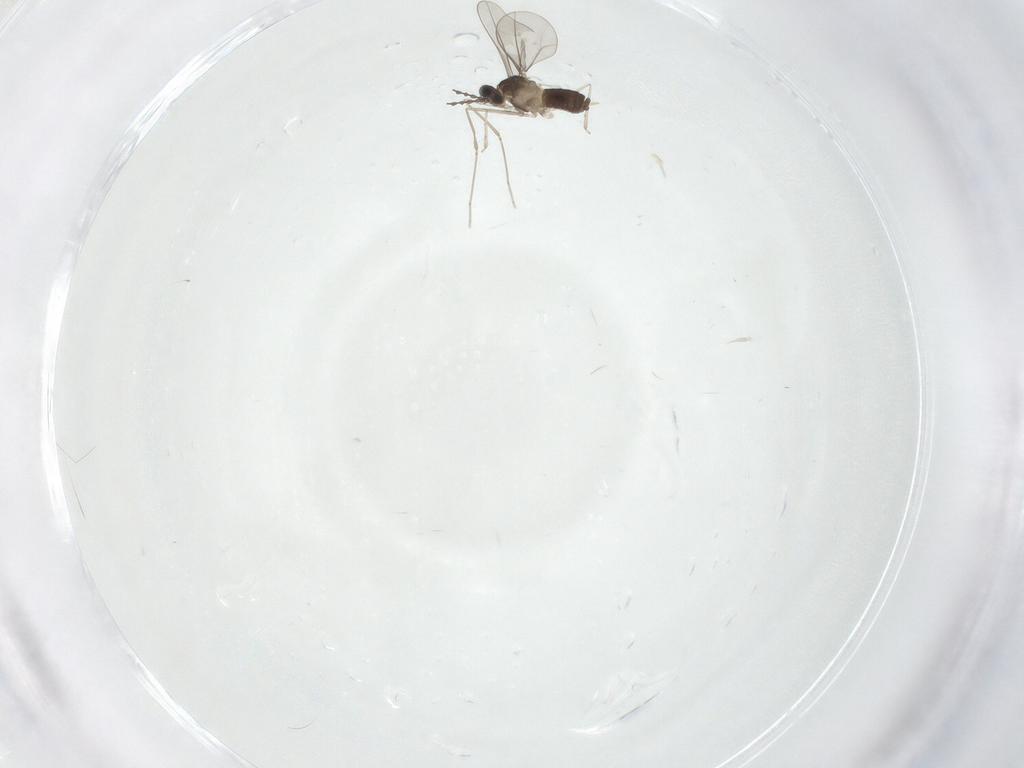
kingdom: Animalia
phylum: Arthropoda
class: Insecta
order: Diptera
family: Cecidomyiidae
